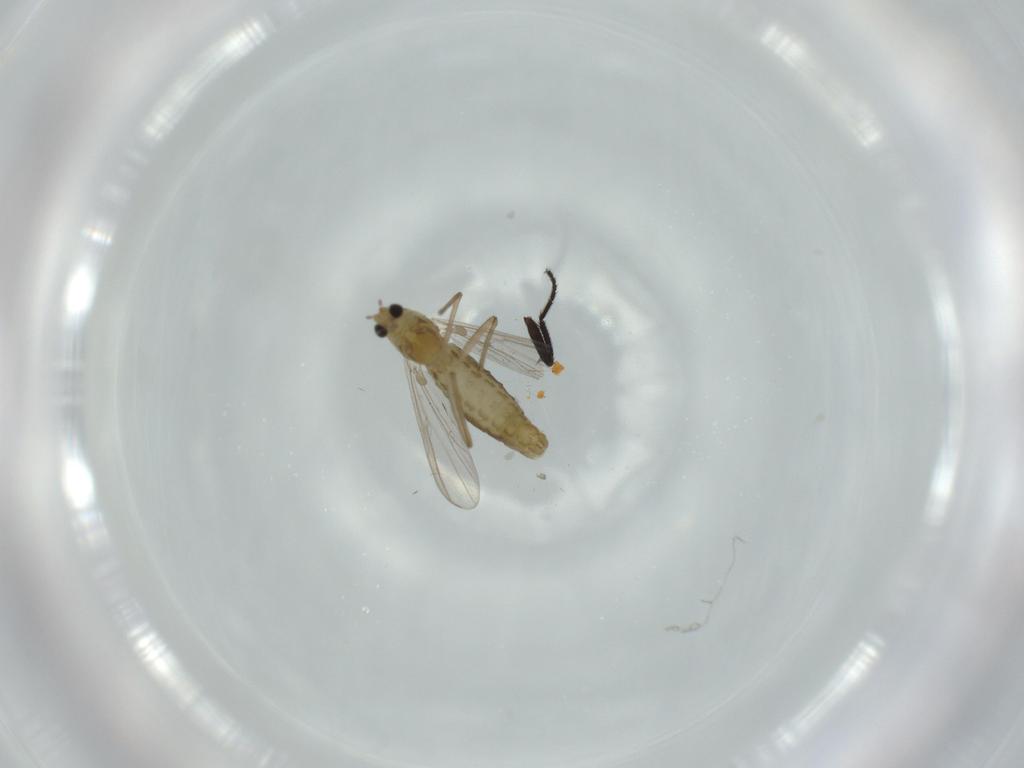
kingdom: Animalia
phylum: Arthropoda
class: Insecta
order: Diptera
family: Chironomidae
